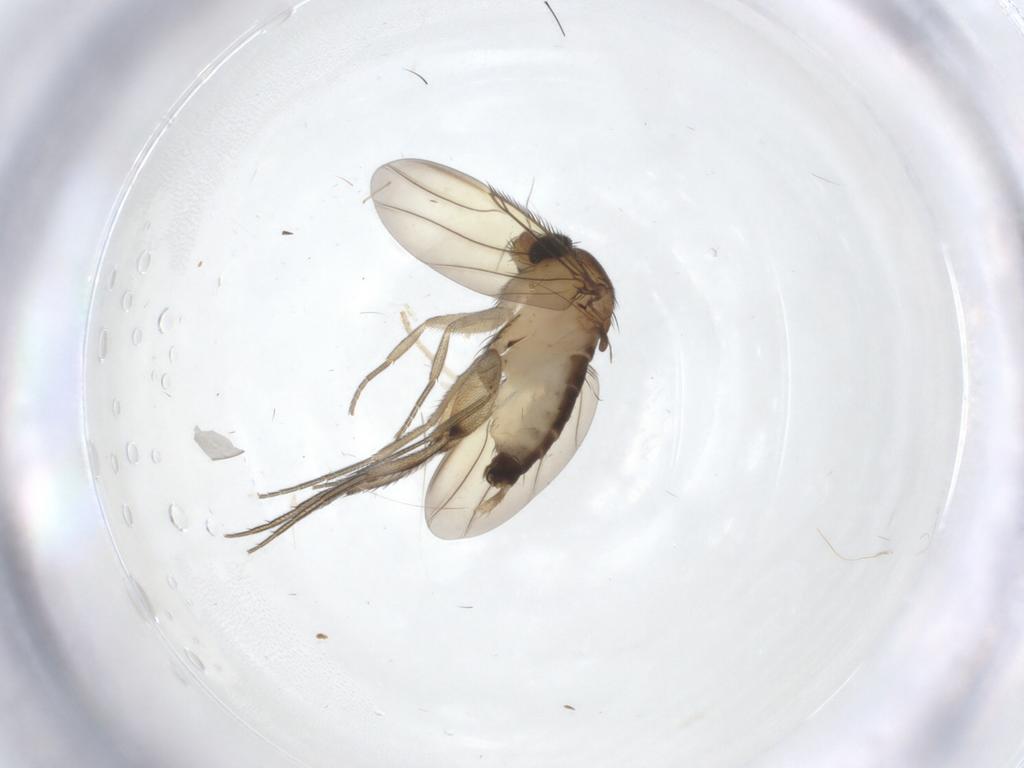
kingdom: Animalia
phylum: Arthropoda
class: Insecta
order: Diptera
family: Phoridae
